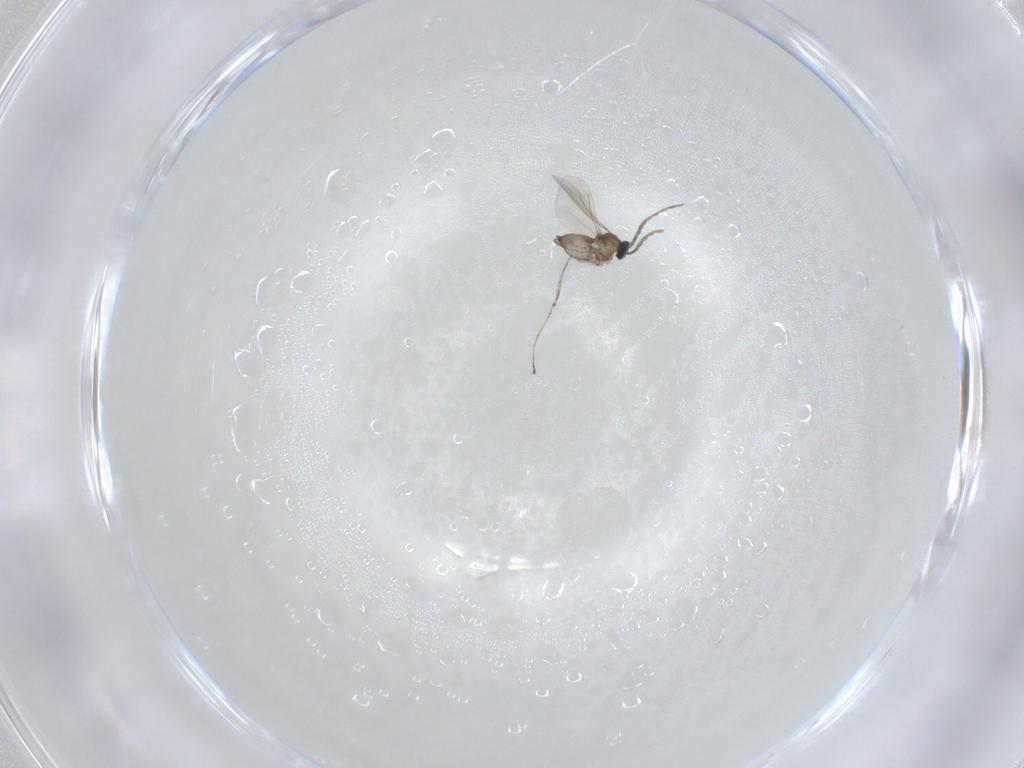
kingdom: Animalia
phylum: Arthropoda
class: Insecta
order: Diptera
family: Cecidomyiidae
